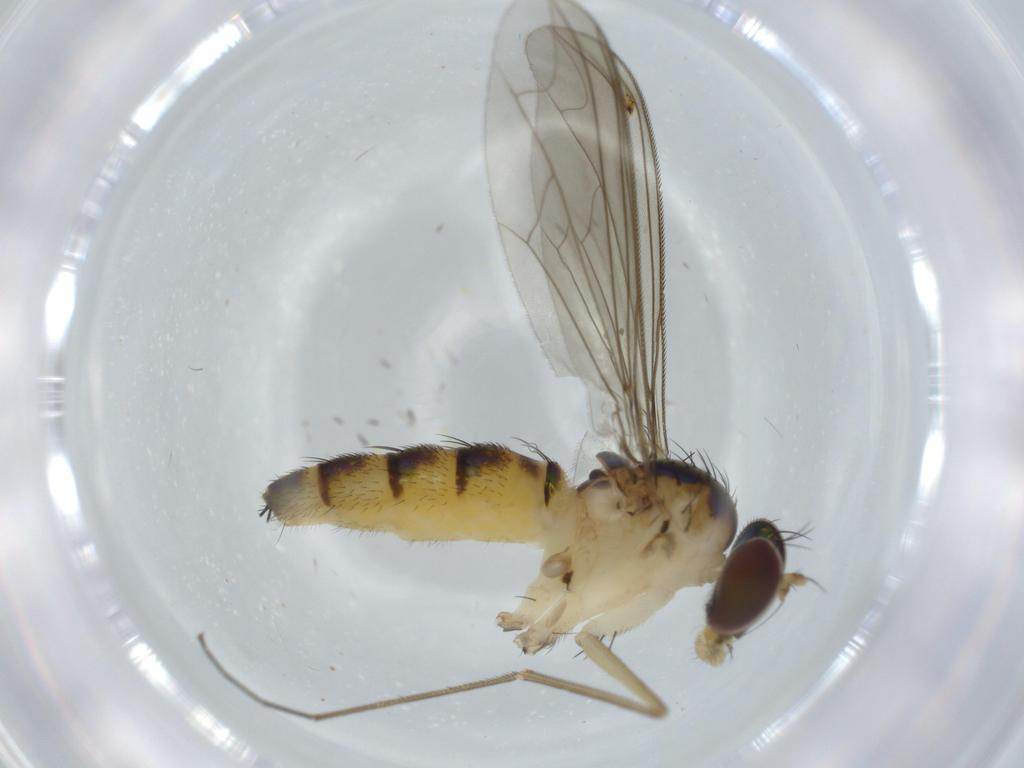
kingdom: Animalia
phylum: Arthropoda
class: Insecta
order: Diptera
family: Dolichopodidae
